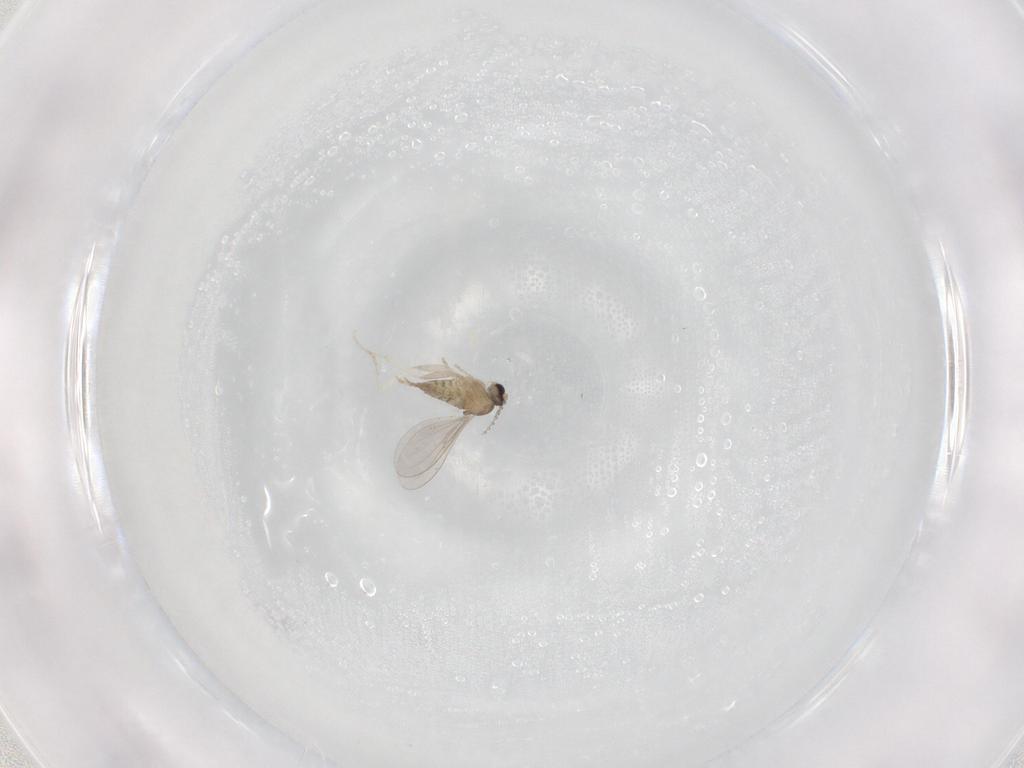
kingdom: Animalia
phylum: Arthropoda
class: Insecta
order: Diptera
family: Cecidomyiidae
